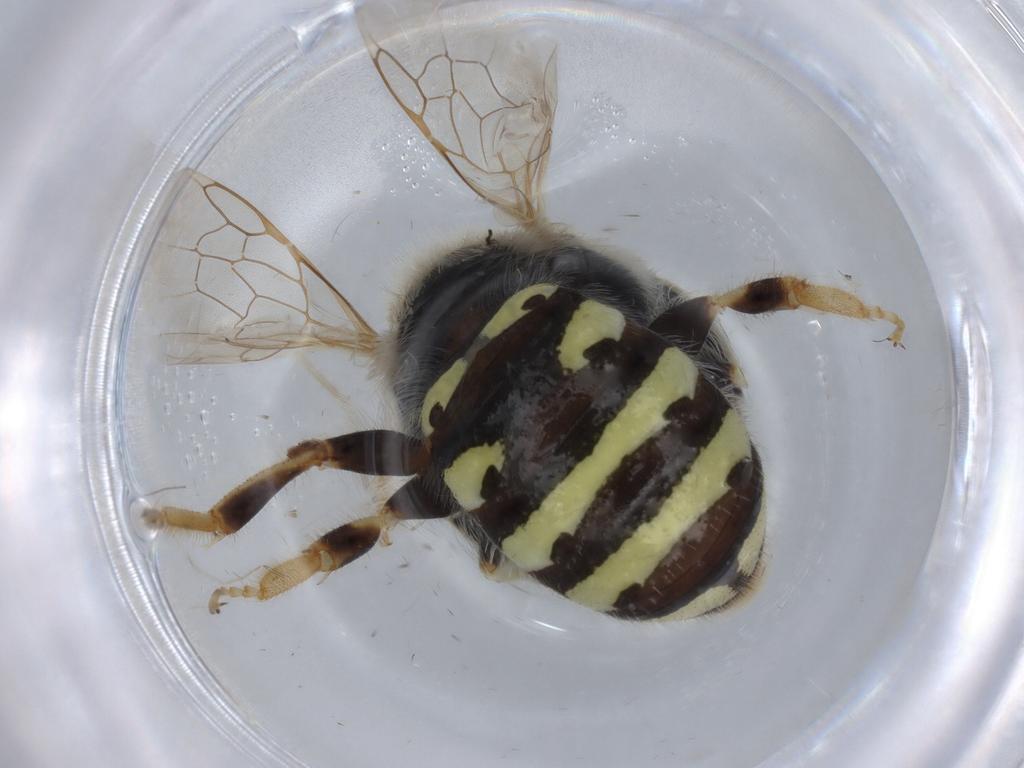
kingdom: Animalia
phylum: Arthropoda
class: Insecta
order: Hymenoptera
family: Andrenidae
